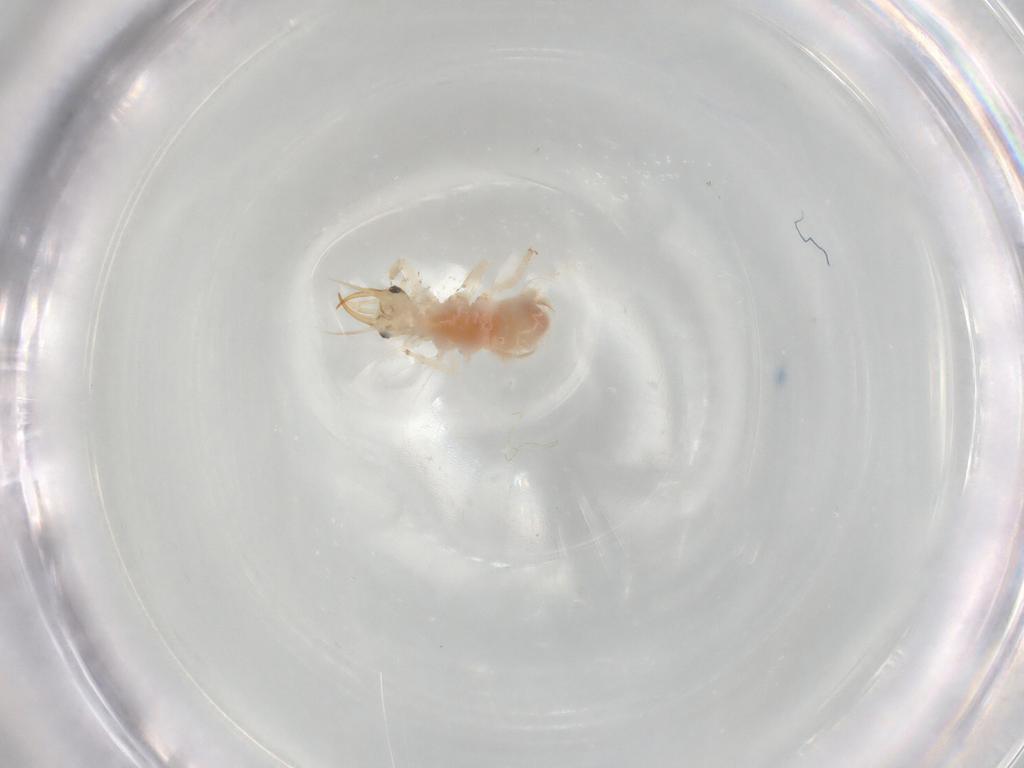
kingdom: Animalia
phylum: Arthropoda
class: Insecta
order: Neuroptera
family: Chrysopidae
